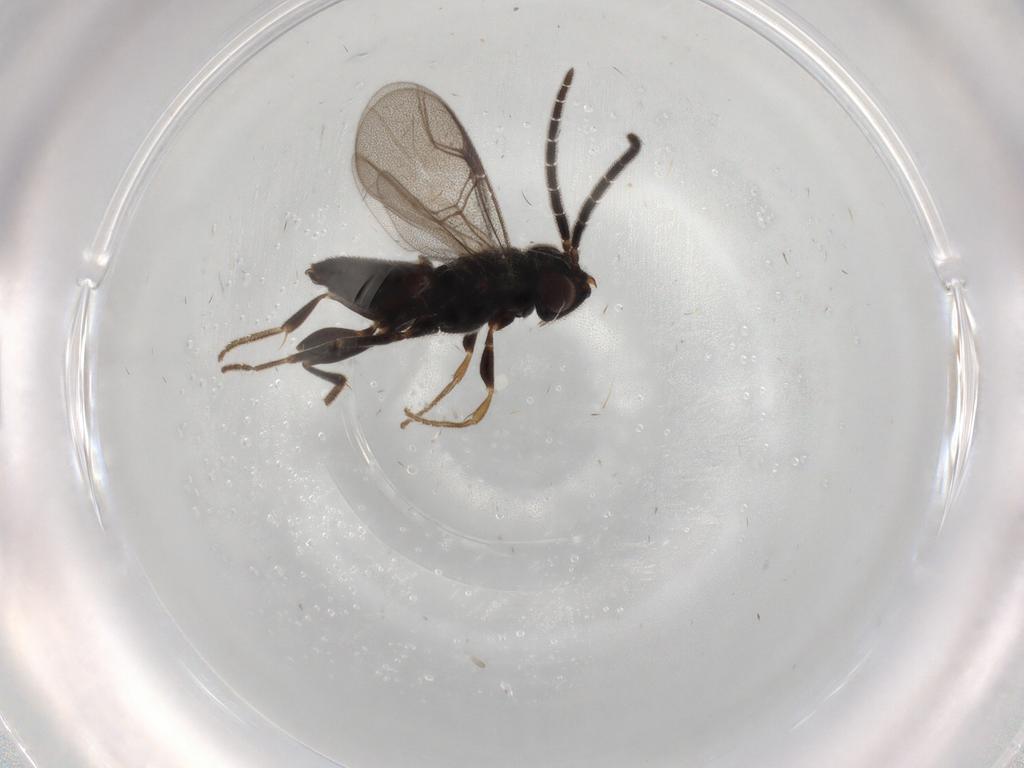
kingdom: Animalia
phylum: Arthropoda
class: Insecta
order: Hymenoptera
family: Dryinidae
